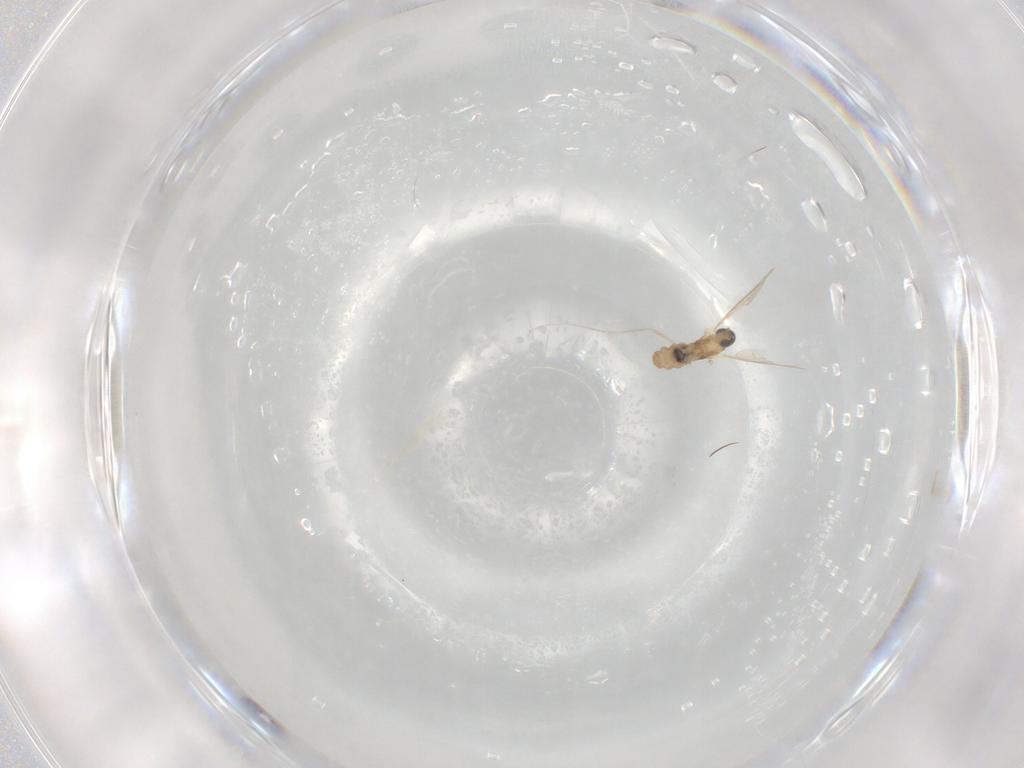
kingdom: Animalia
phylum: Arthropoda
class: Insecta
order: Diptera
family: Cecidomyiidae
